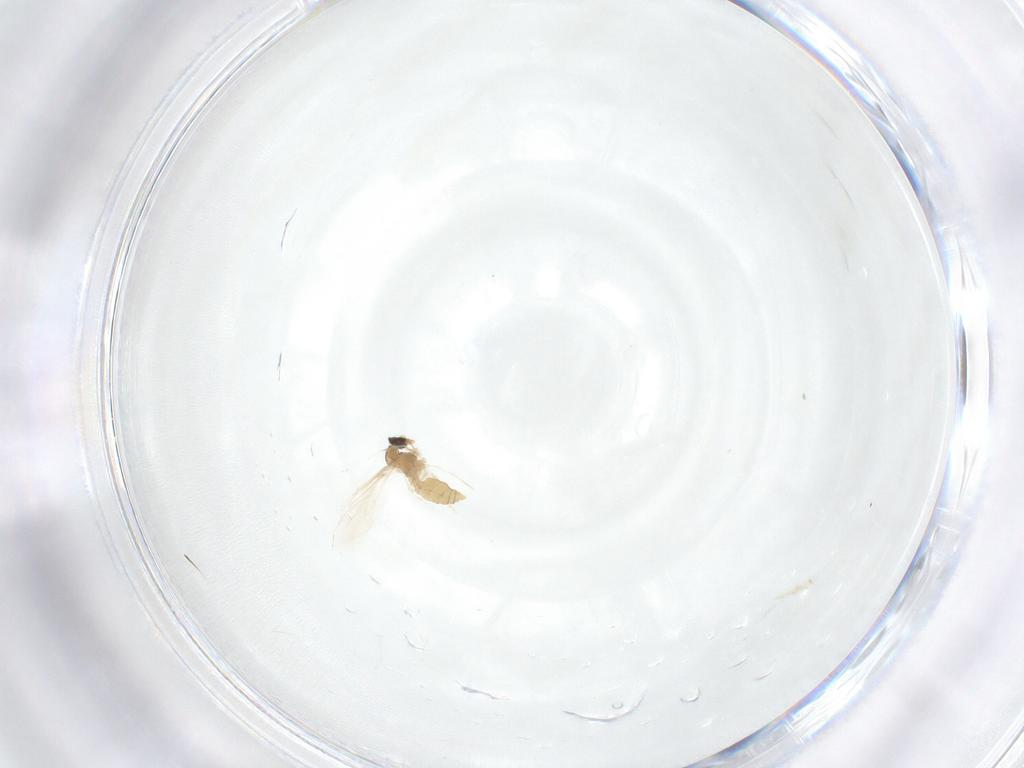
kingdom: Animalia
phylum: Arthropoda
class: Insecta
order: Diptera
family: Cecidomyiidae
